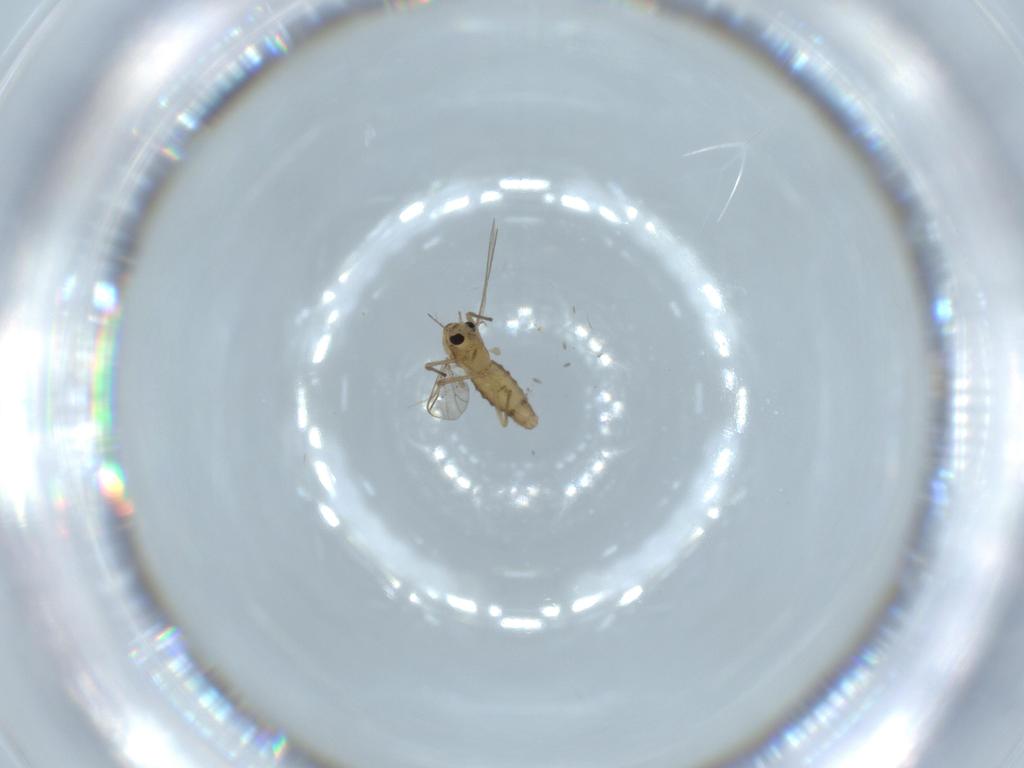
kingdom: Animalia
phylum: Arthropoda
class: Insecta
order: Diptera
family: Chironomidae
